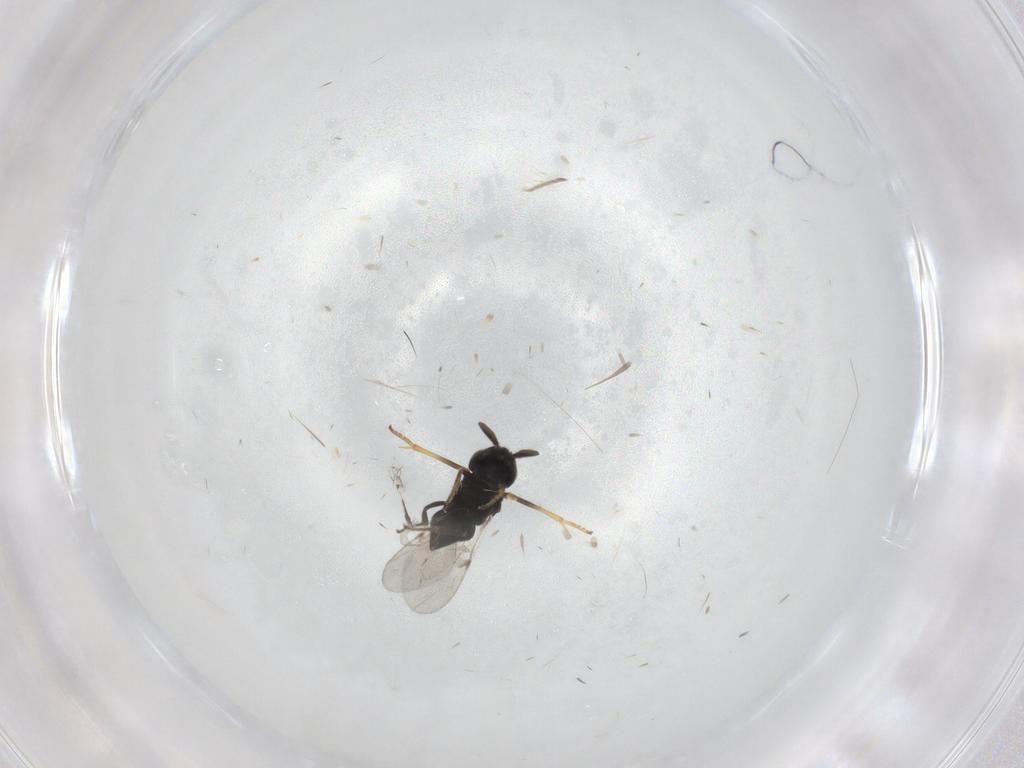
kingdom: Animalia
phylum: Arthropoda
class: Insecta
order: Hymenoptera
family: Encyrtidae
